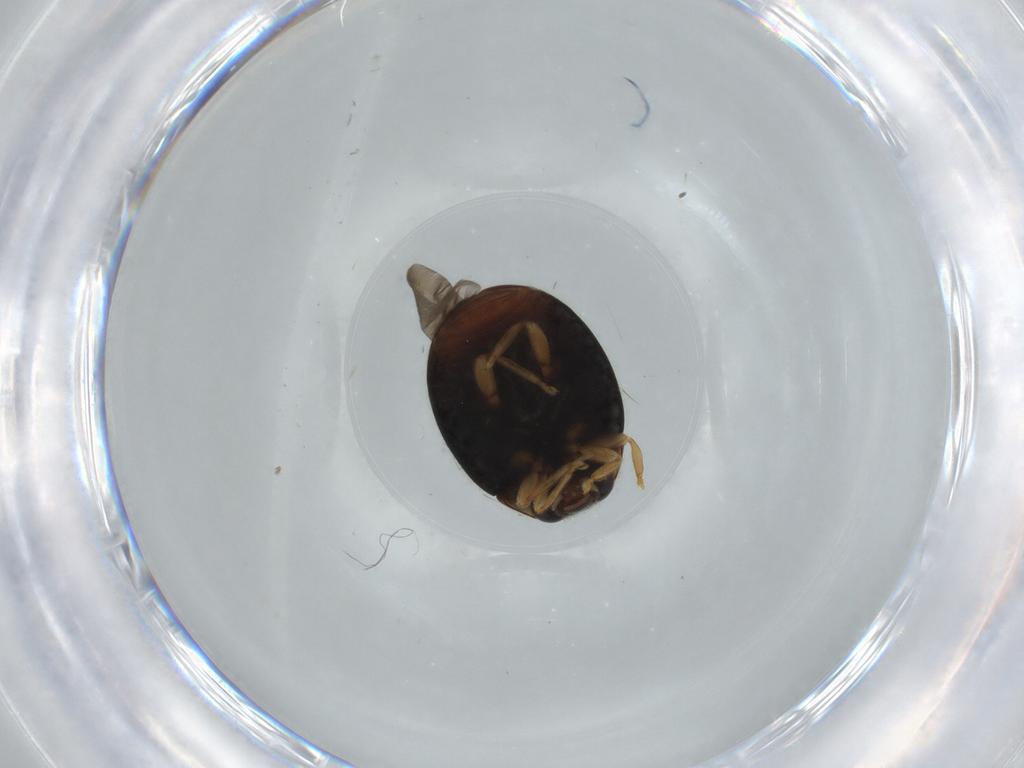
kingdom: Animalia
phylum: Arthropoda
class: Insecta
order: Coleoptera
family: Coccinellidae
